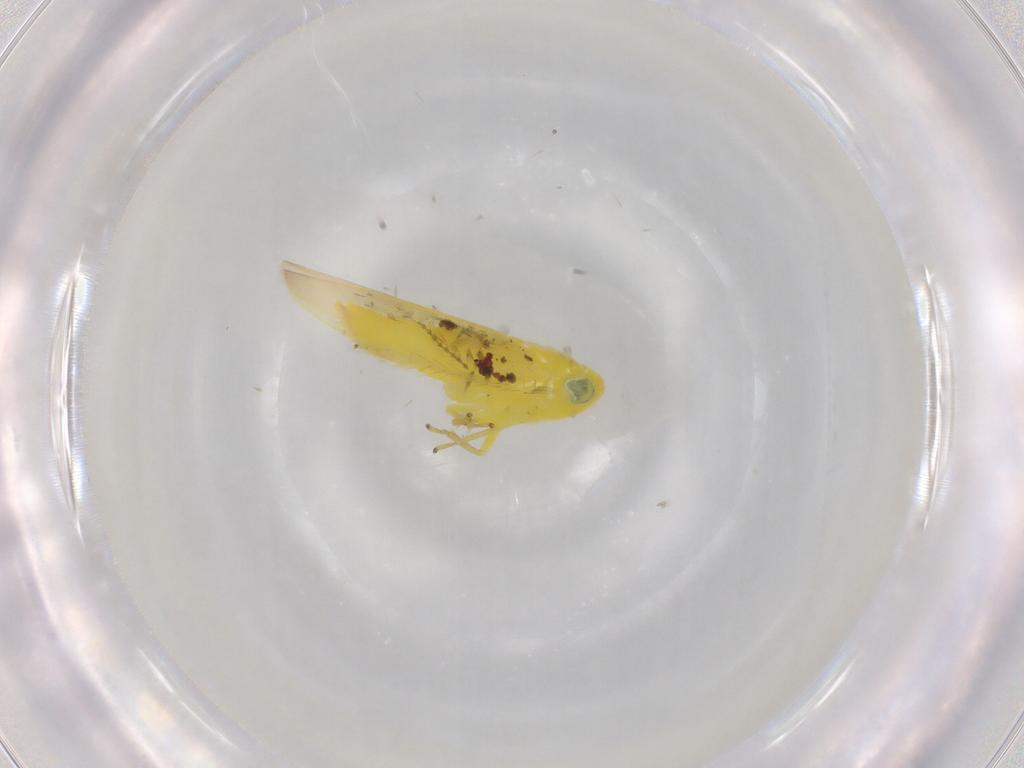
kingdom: Animalia
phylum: Arthropoda
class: Insecta
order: Hemiptera
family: Cicadellidae
